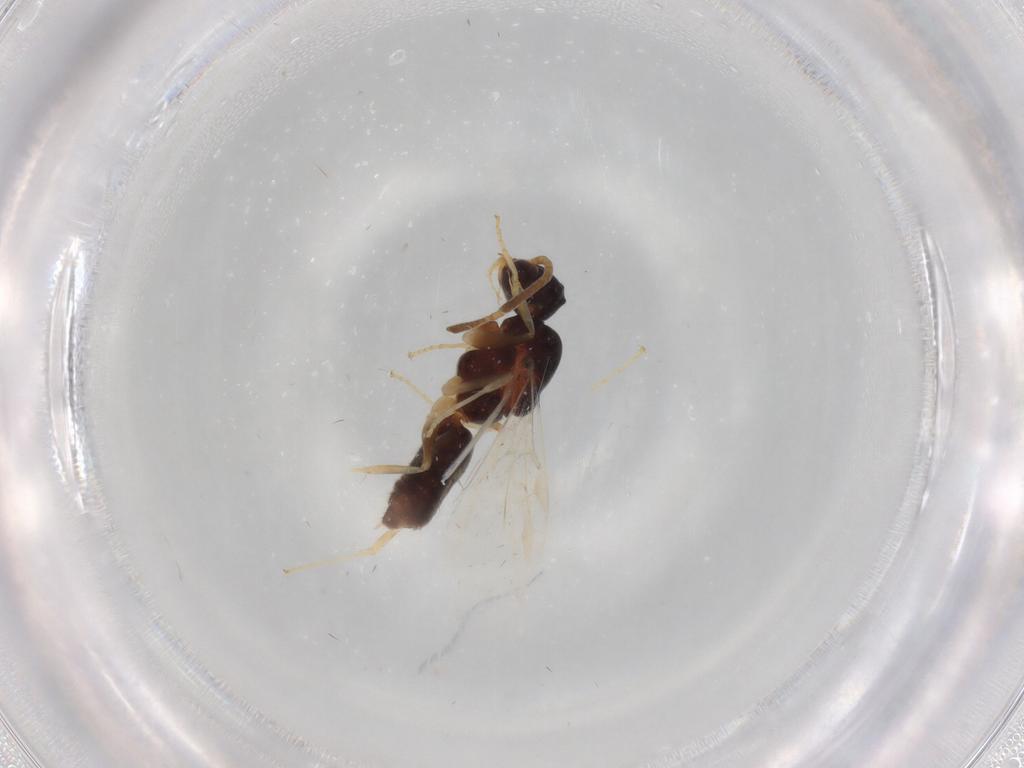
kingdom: Animalia
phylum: Arthropoda
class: Insecta
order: Hymenoptera
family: Formicidae
